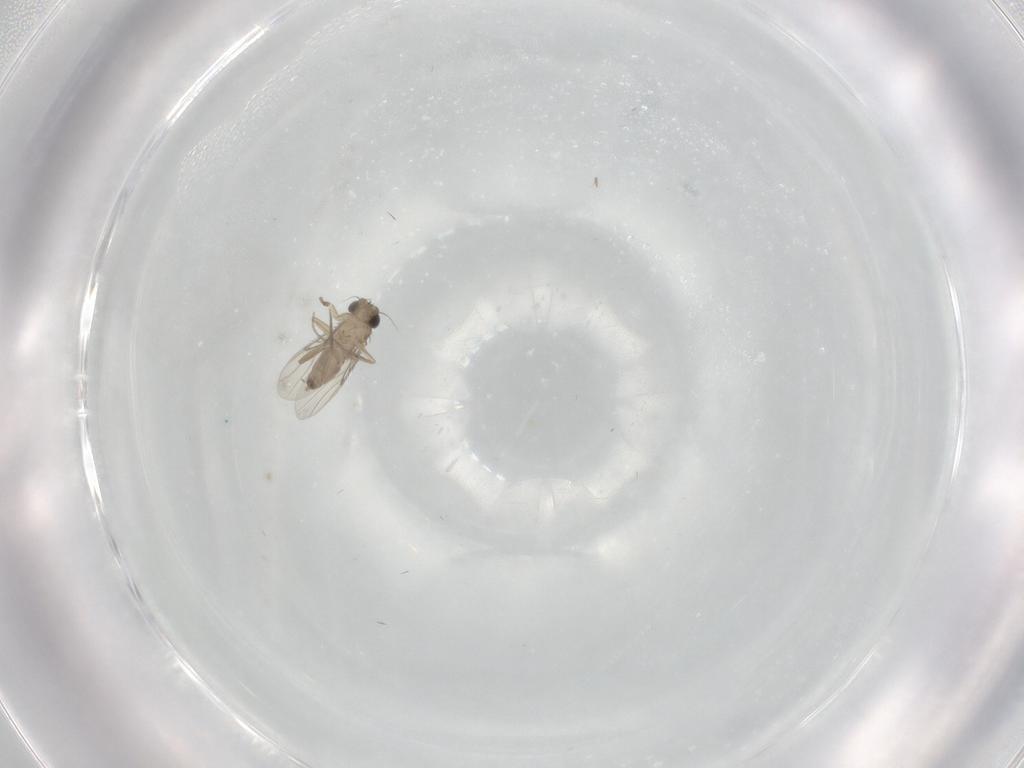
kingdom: Animalia
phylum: Arthropoda
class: Insecta
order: Diptera
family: Phoridae
